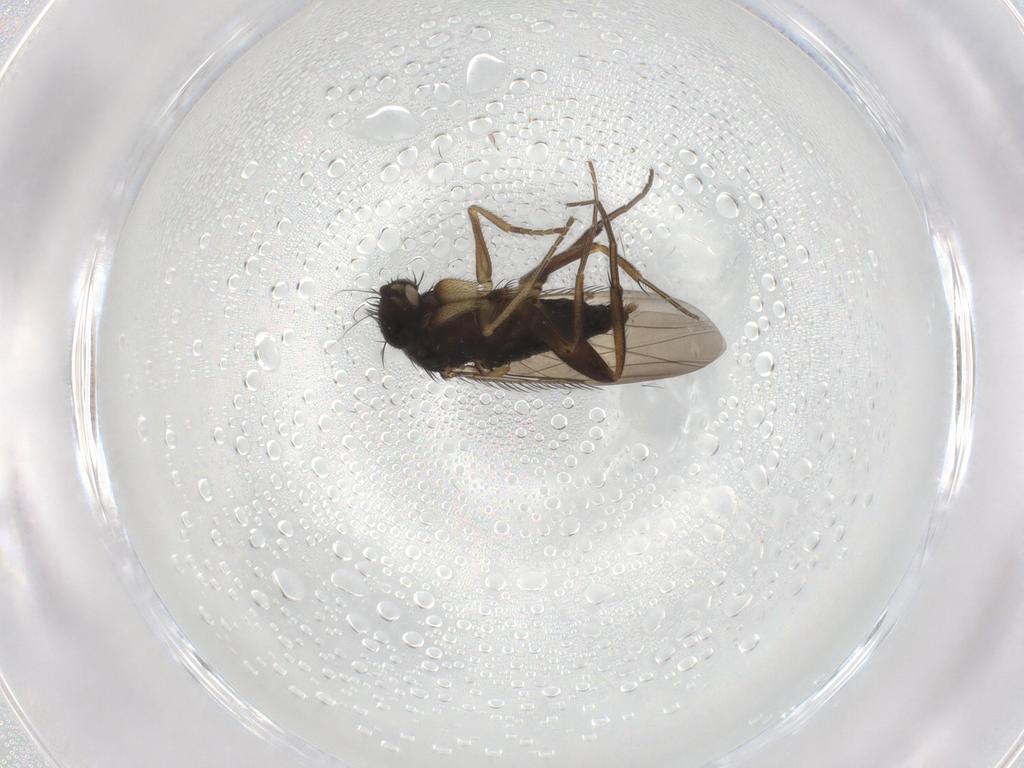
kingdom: Animalia
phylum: Arthropoda
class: Insecta
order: Diptera
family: Phoridae
